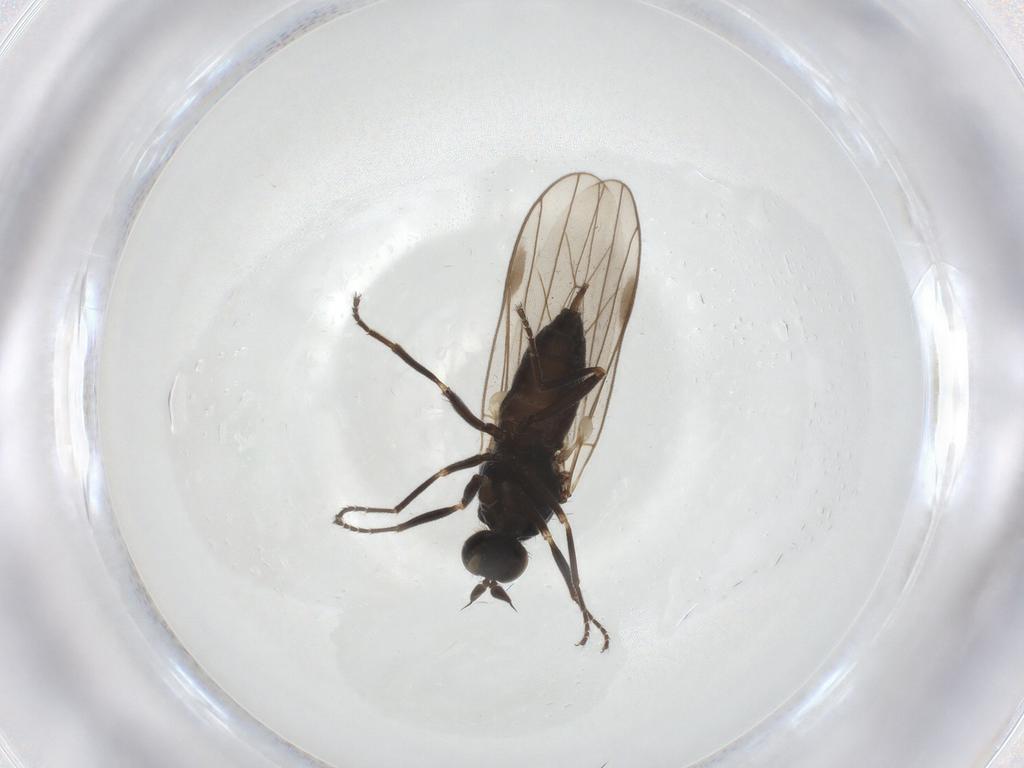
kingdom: Animalia
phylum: Arthropoda
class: Insecta
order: Diptera
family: Hybotidae
